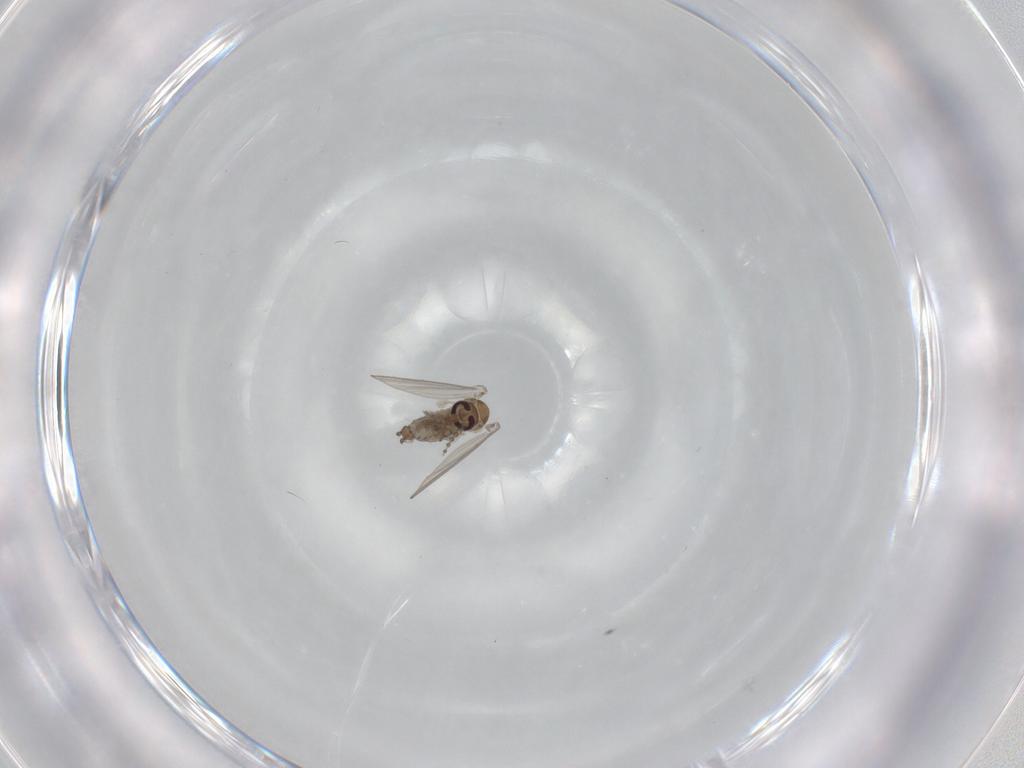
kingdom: Animalia
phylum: Arthropoda
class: Insecta
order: Diptera
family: Psychodidae
